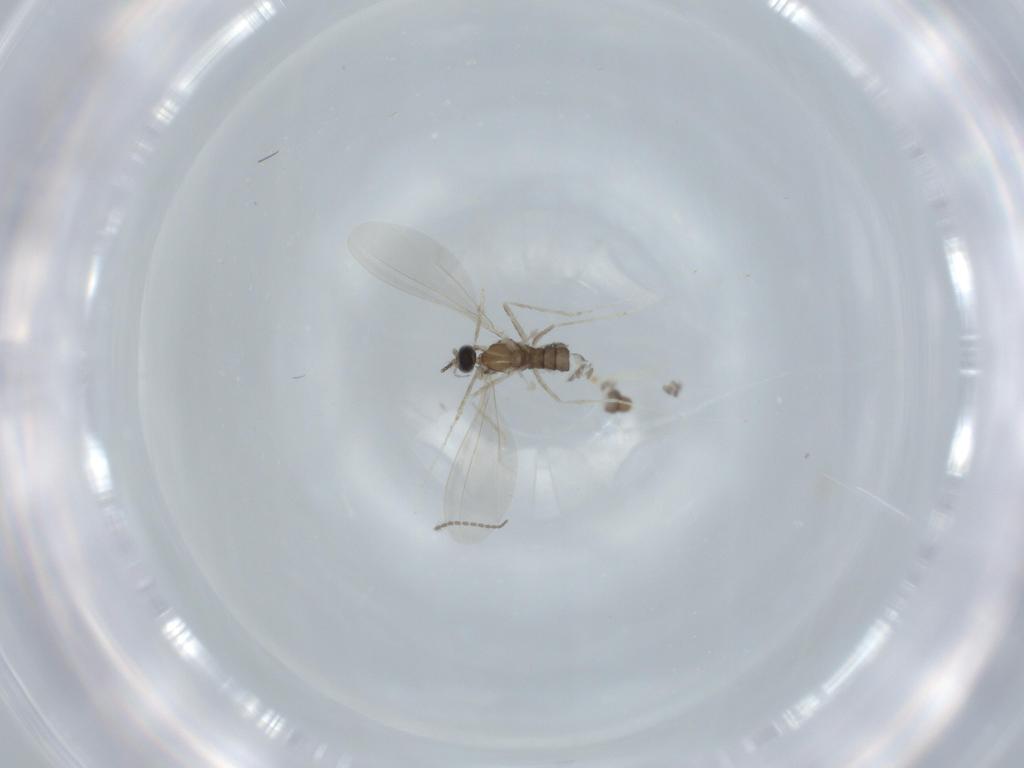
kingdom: Animalia
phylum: Arthropoda
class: Insecta
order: Diptera
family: Cecidomyiidae
